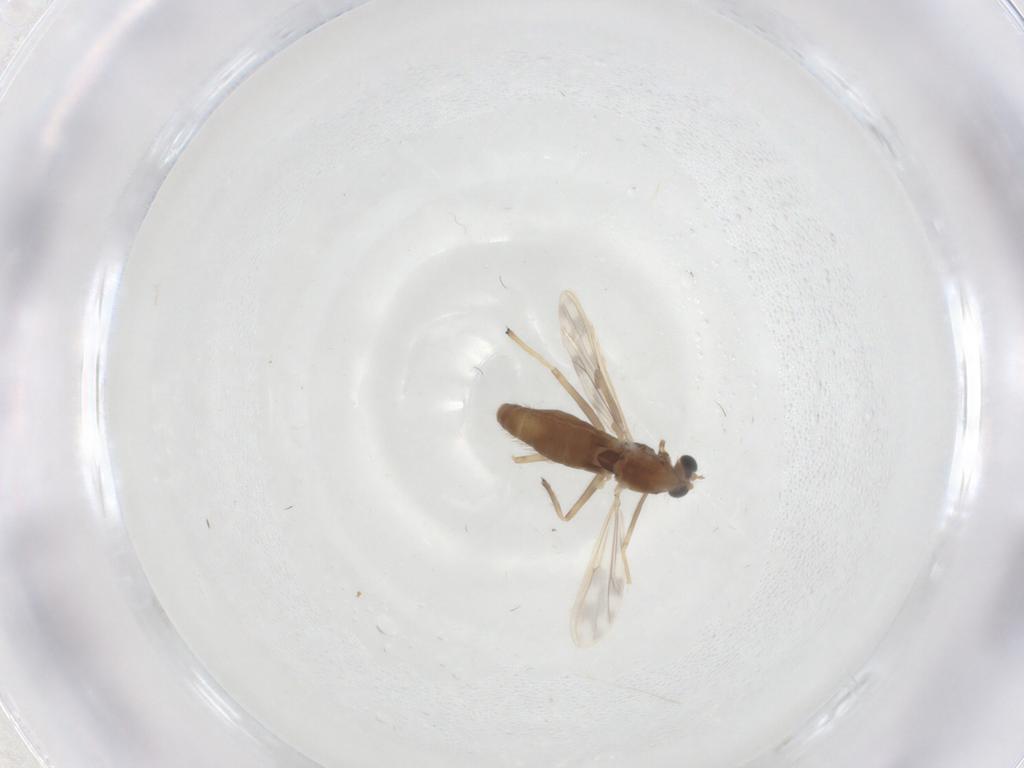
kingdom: Animalia
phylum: Arthropoda
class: Insecta
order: Diptera
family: Chironomidae
